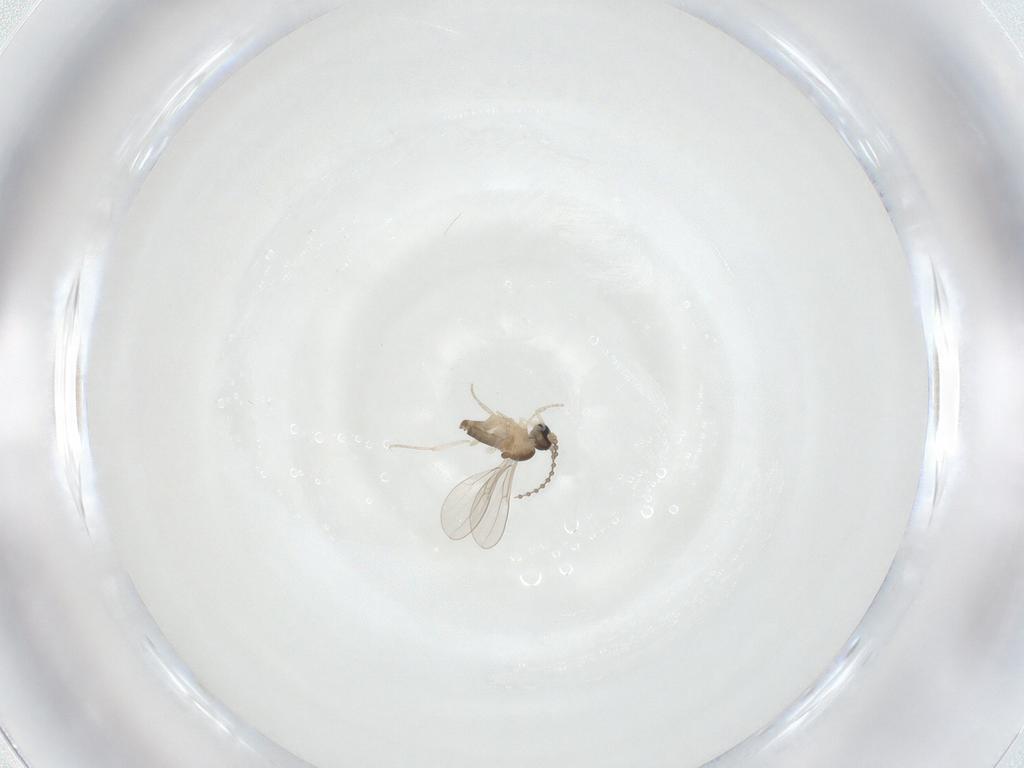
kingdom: Animalia
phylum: Arthropoda
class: Insecta
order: Diptera
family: Cecidomyiidae
